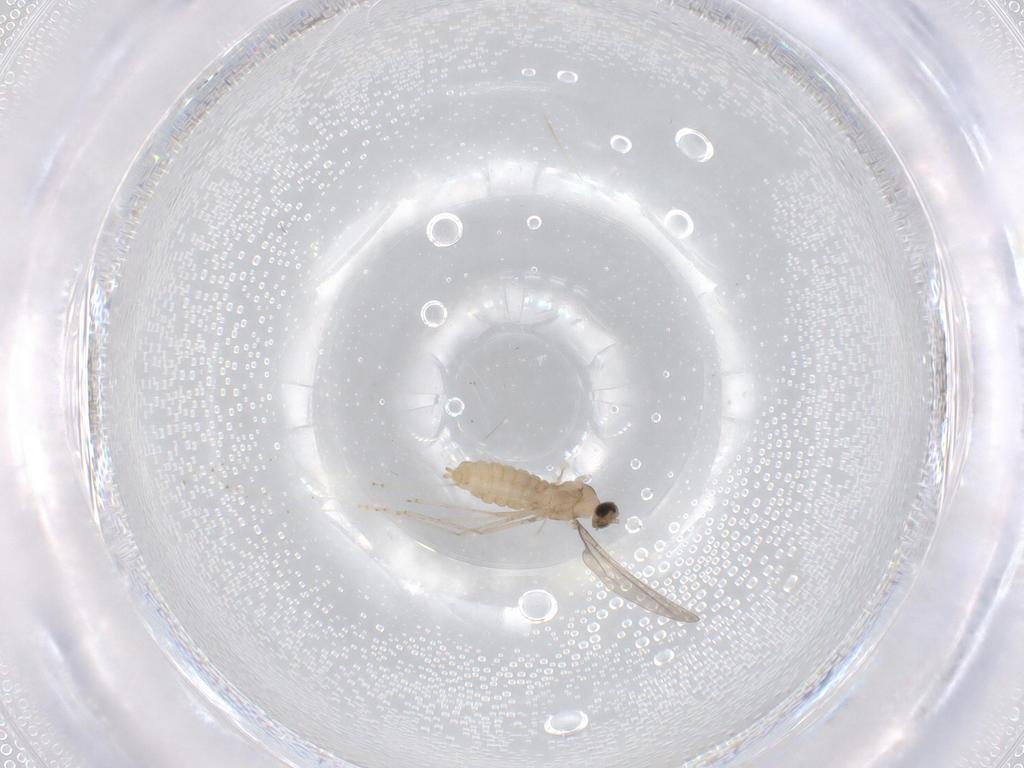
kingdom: Animalia
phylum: Arthropoda
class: Insecta
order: Diptera
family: Cecidomyiidae
